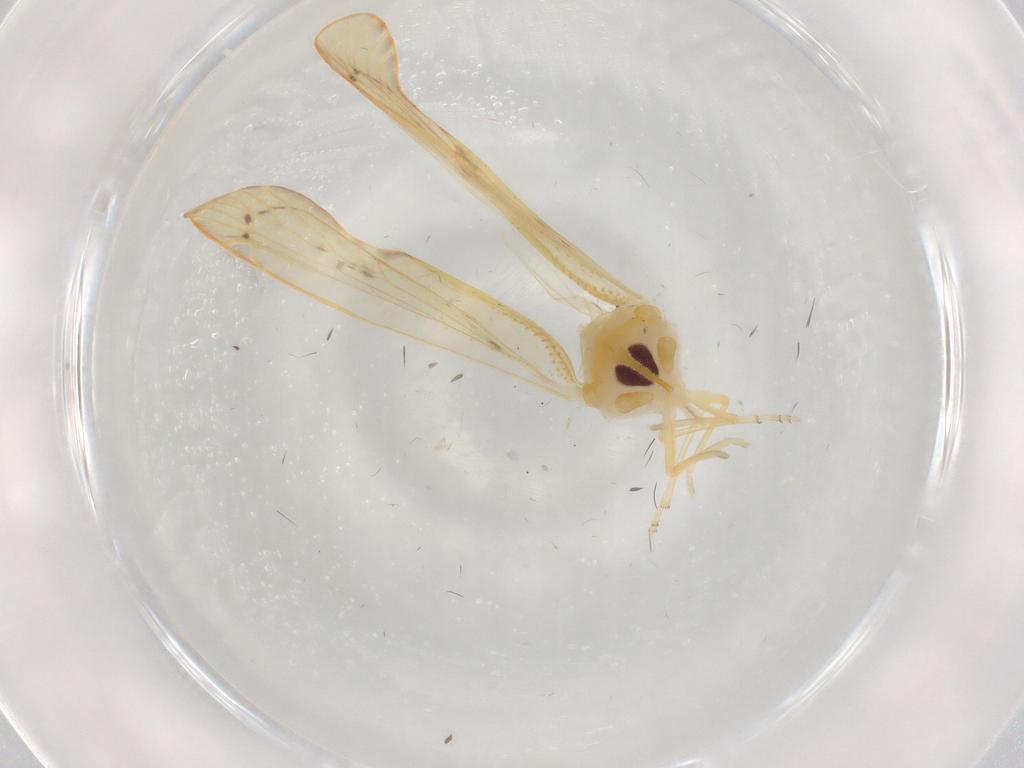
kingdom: Animalia
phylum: Arthropoda
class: Insecta
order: Hemiptera
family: Derbidae
